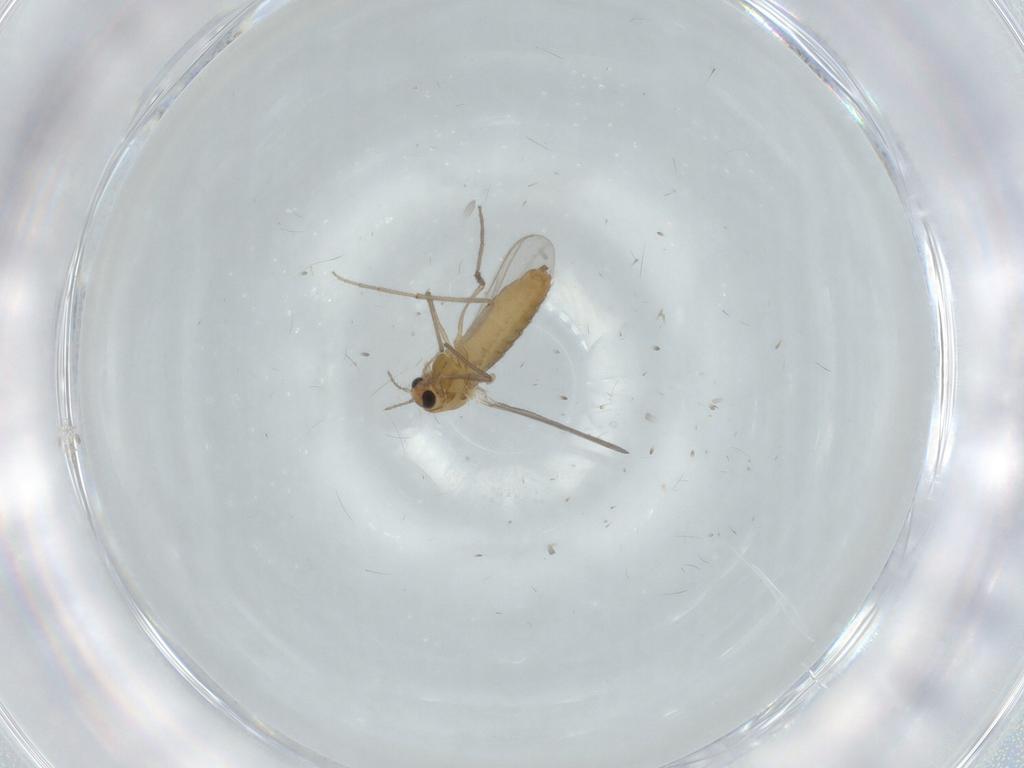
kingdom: Animalia
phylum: Arthropoda
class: Insecta
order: Diptera
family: Chironomidae
